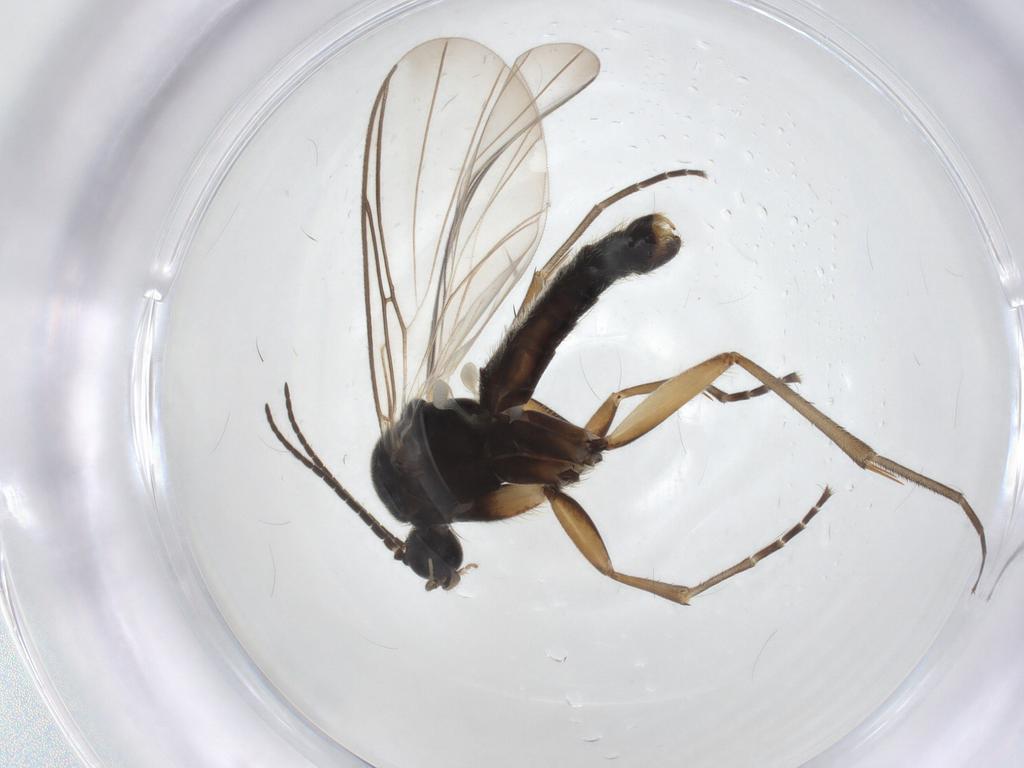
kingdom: Animalia
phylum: Arthropoda
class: Insecta
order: Diptera
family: Mycetophilidae
